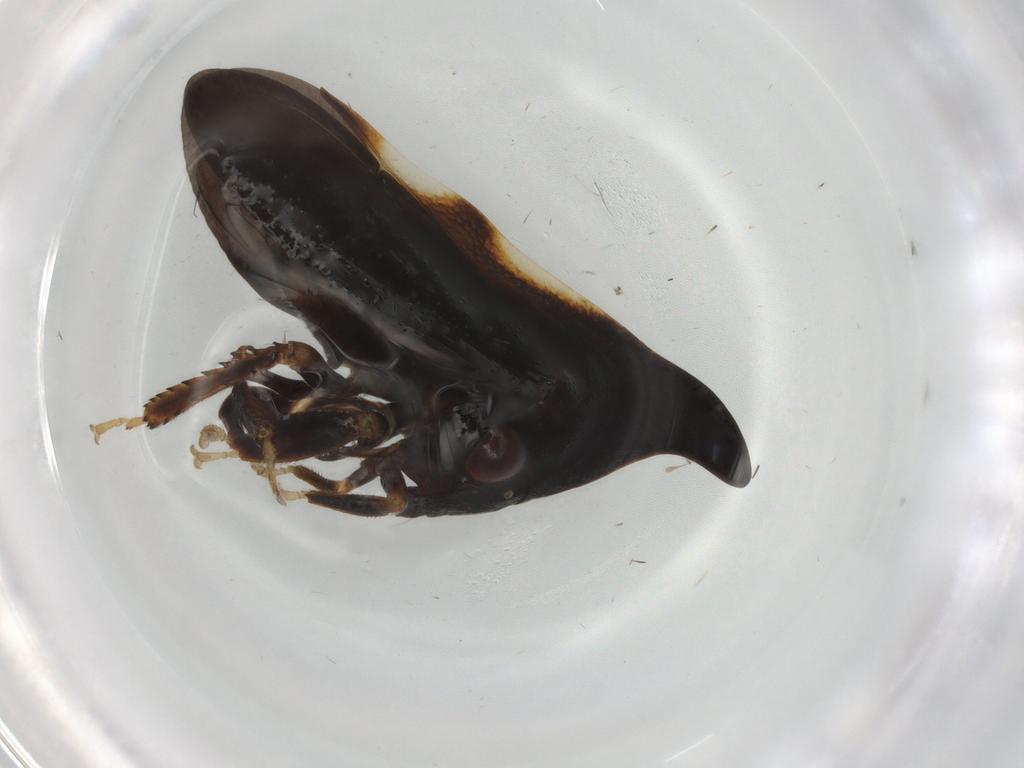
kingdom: Animalia
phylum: Arthropoda
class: Insecta
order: Hemiptera
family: Membracidae
